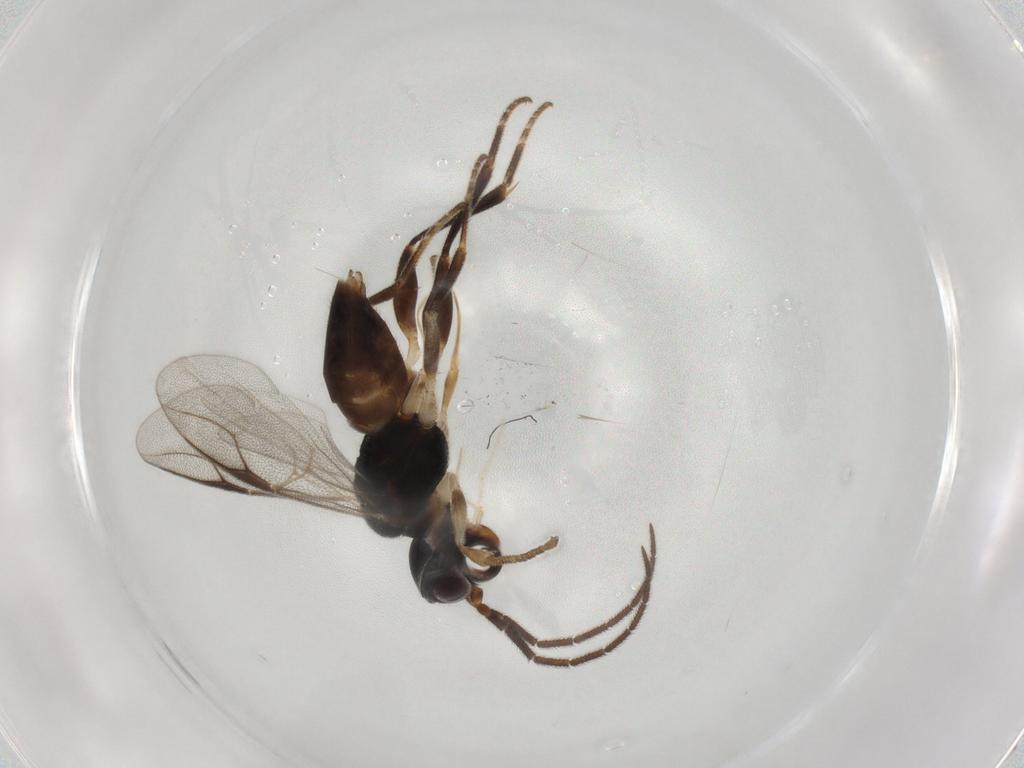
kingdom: Animalia
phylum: Arthropoda
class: Insecta
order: Hymenoptera
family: Dryinidae
